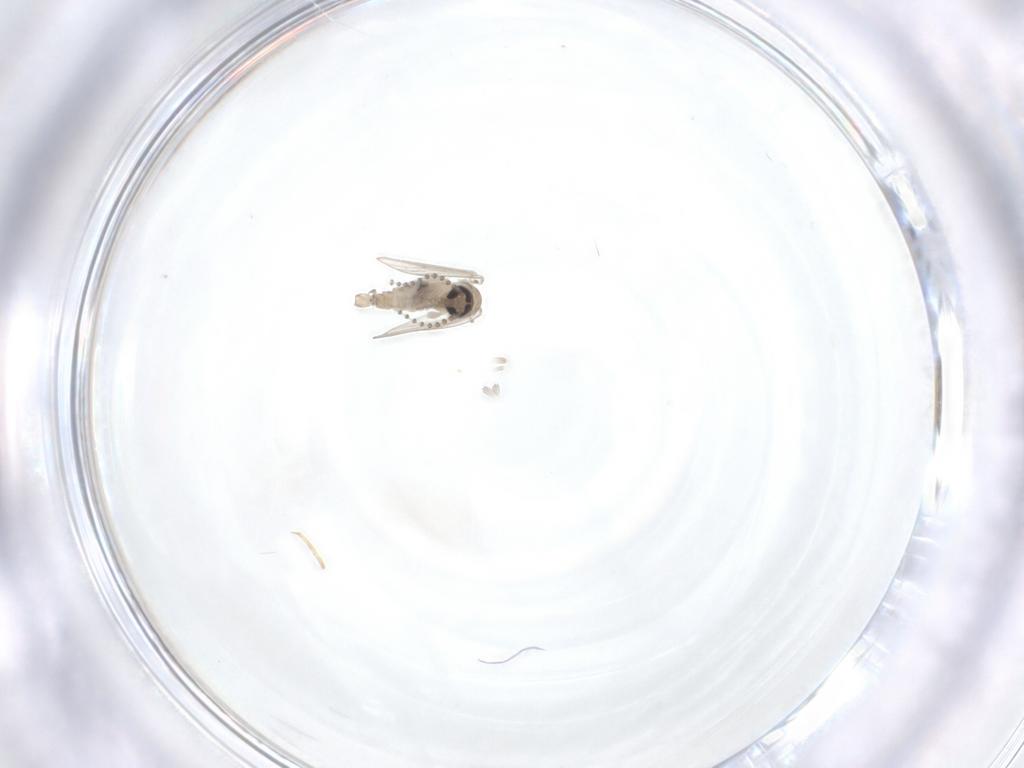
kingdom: Animalia
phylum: Arthropoda
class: Insecta
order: Diptera
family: Psychodidae
